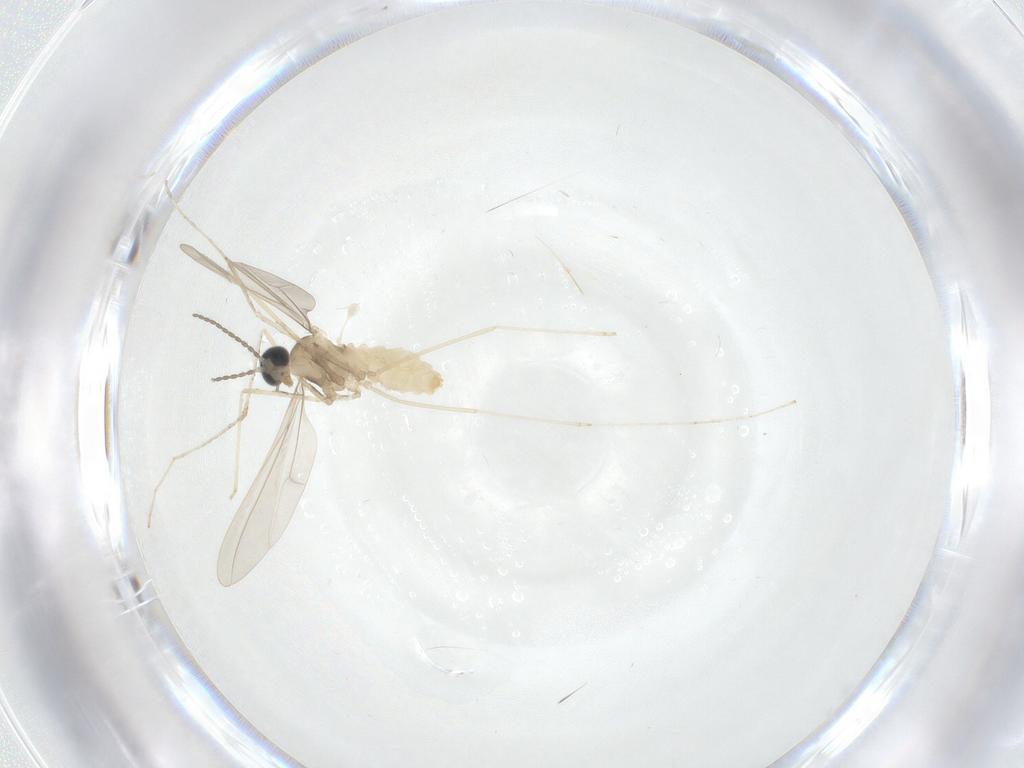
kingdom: Animalia
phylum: Arthropoda
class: Insecta
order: Diptera
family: Cecidomyiidae
